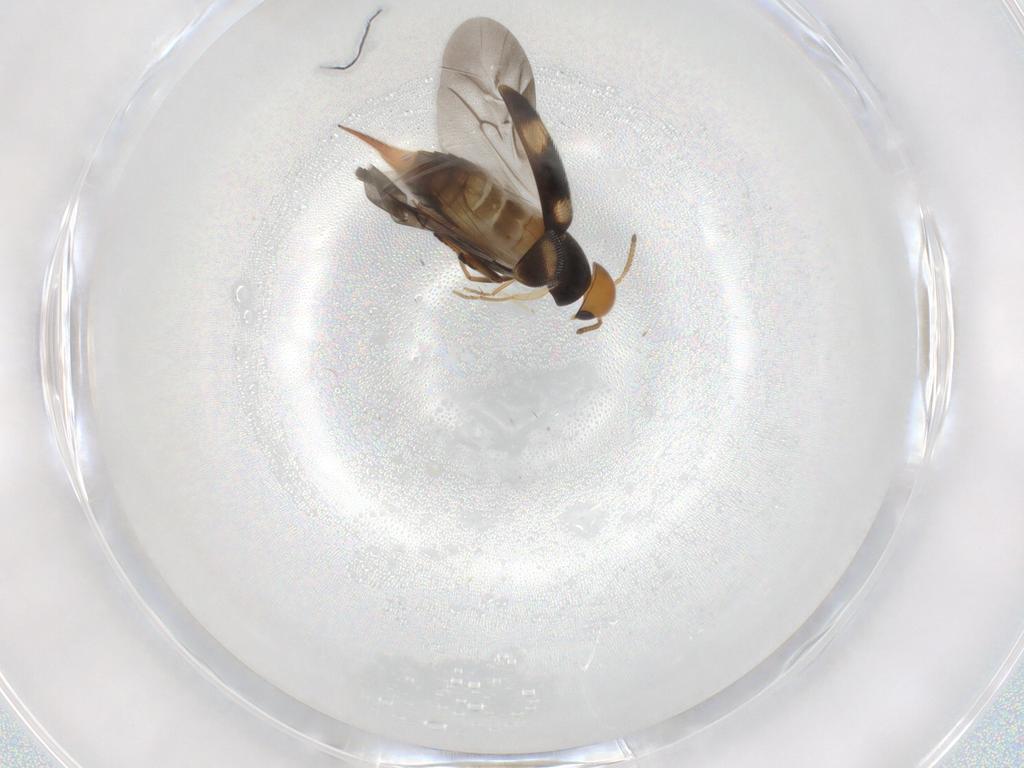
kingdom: Animalia
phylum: Arthropoda
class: Insecta
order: Coleoptera
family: Mordellidae
